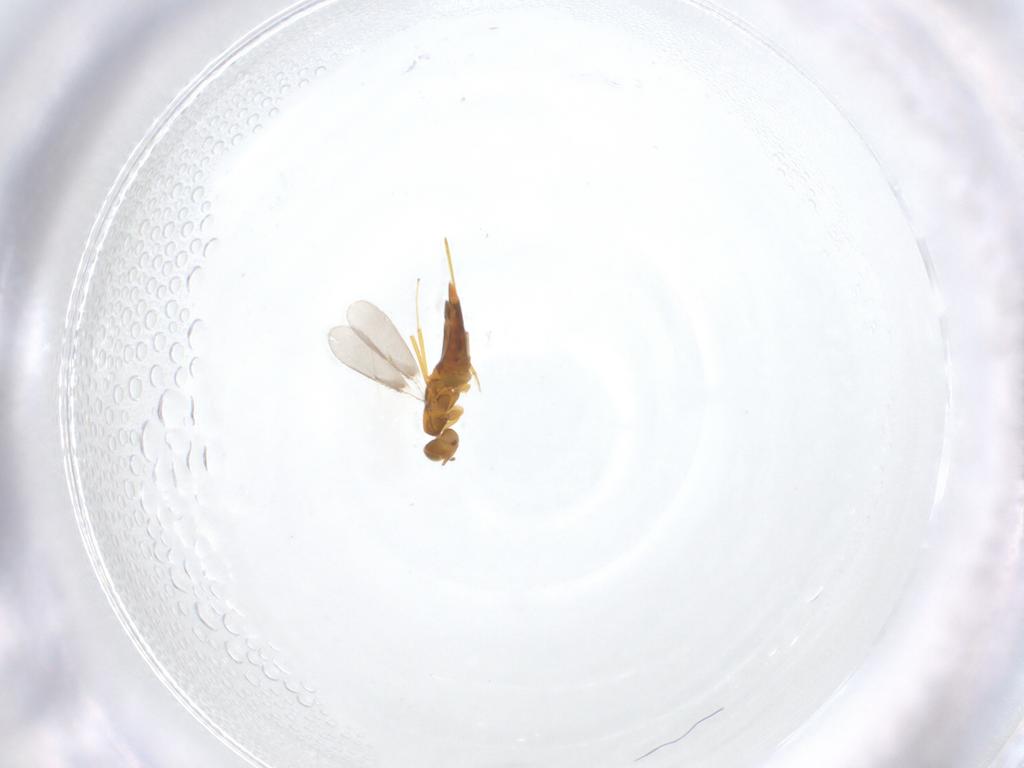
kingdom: Animalia
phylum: Arthropoda
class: Insecta
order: Hymenoptera
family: Aphelinidae
